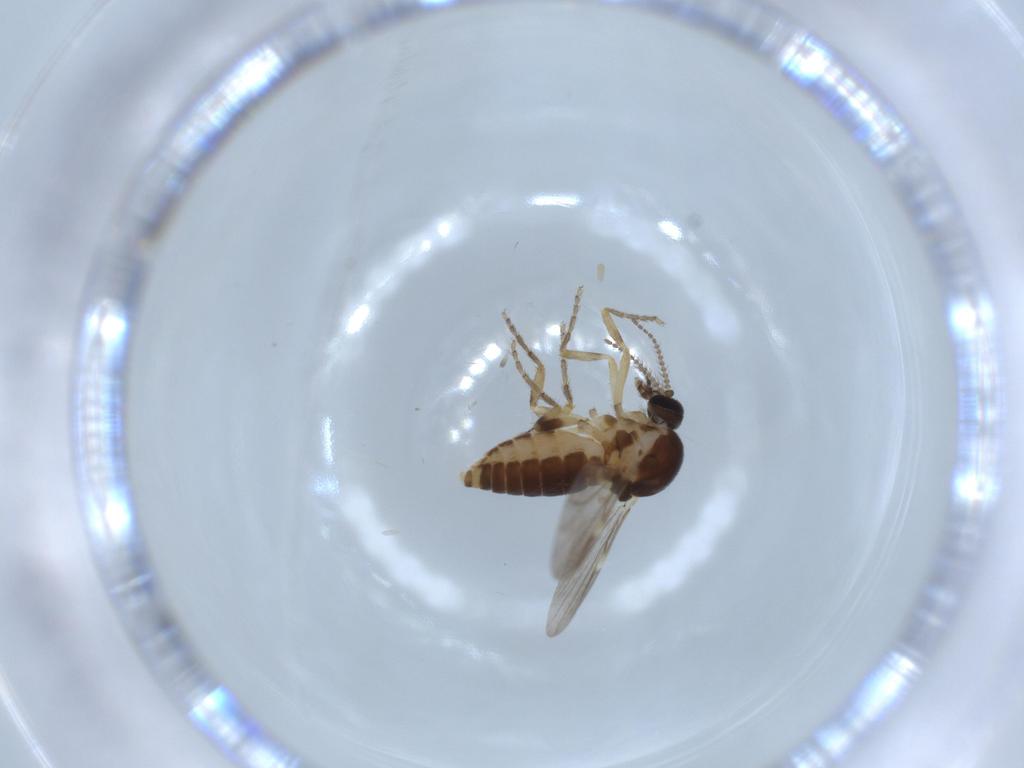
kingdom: Animalia
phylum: Arthropoda
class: Insecta
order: Diptera
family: Ceratopogonidae
